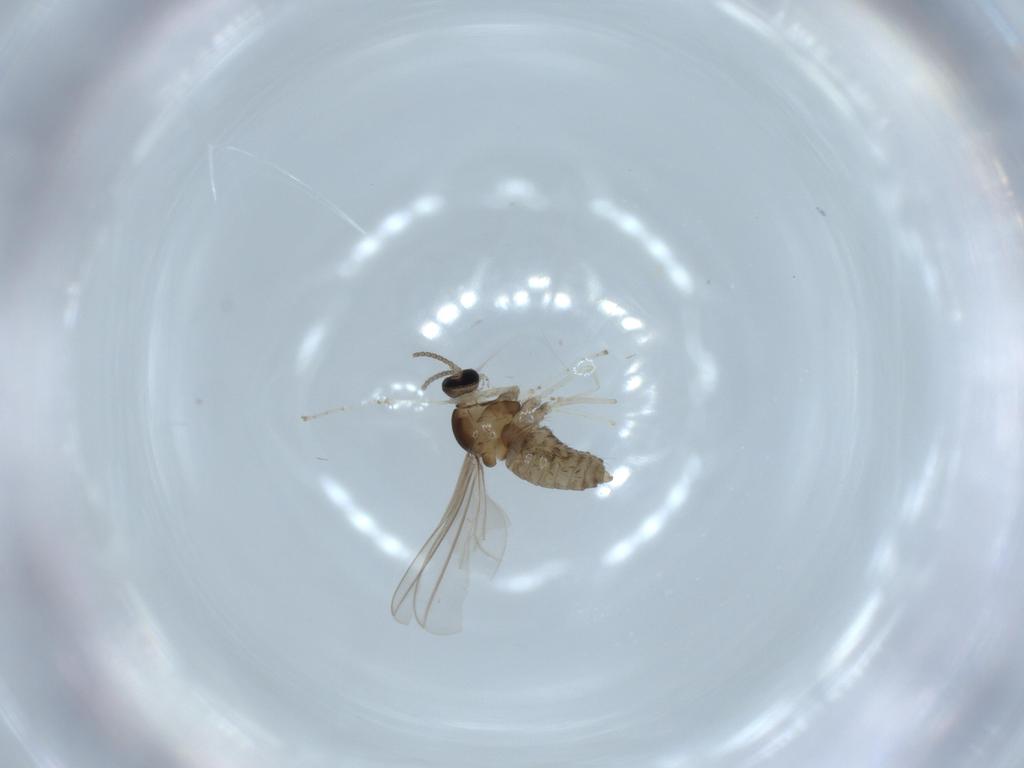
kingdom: Animalia
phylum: Arthropoda
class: Insecta
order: Diptera
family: Cecidomyiidae
